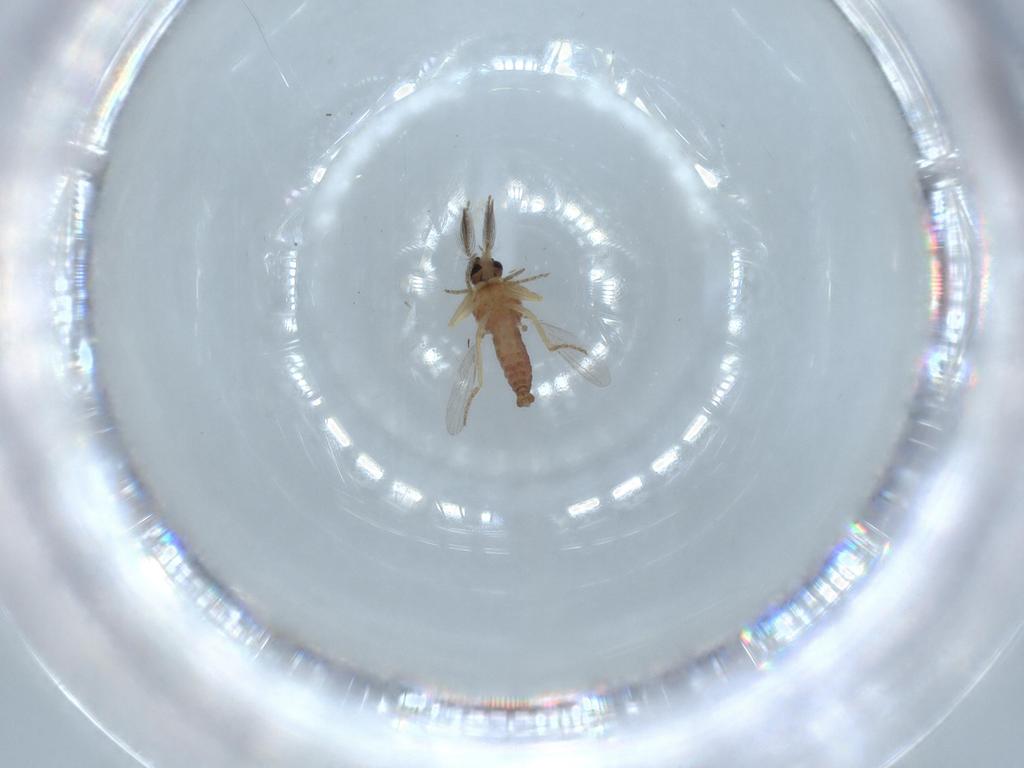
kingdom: Animalia
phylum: Arthropoda
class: Insecta
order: Diptera
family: Ceratopogonidae
